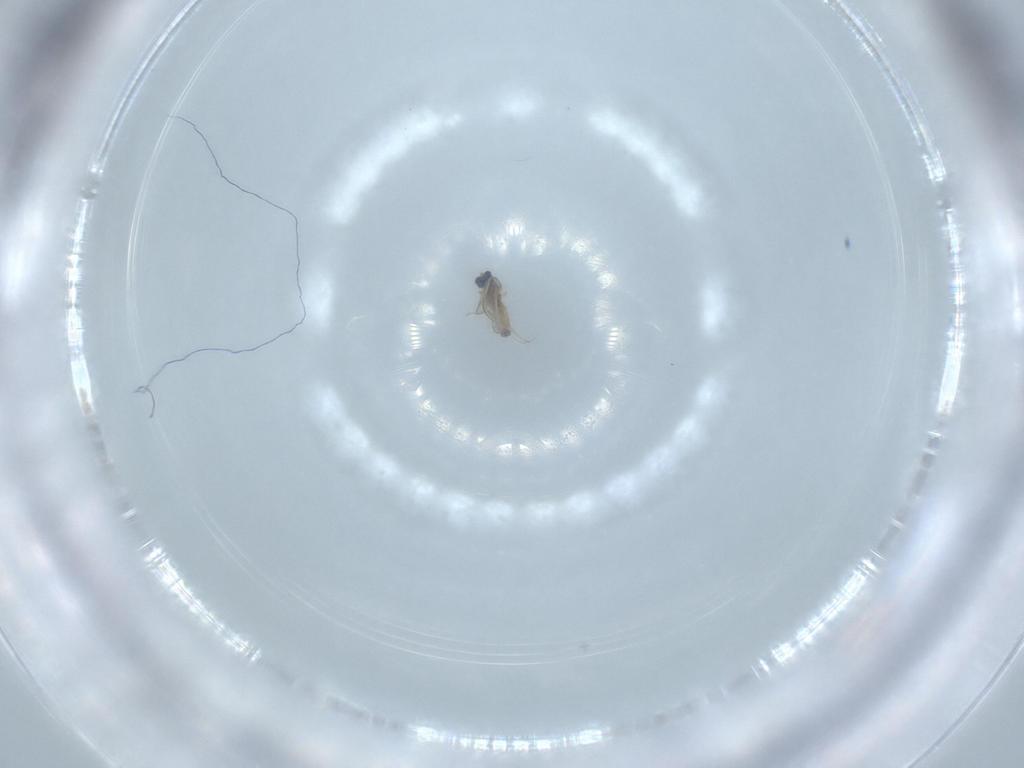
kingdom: Animalia
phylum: Arthropoda
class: Insecta
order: Diptera
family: Cecidomyiidae
